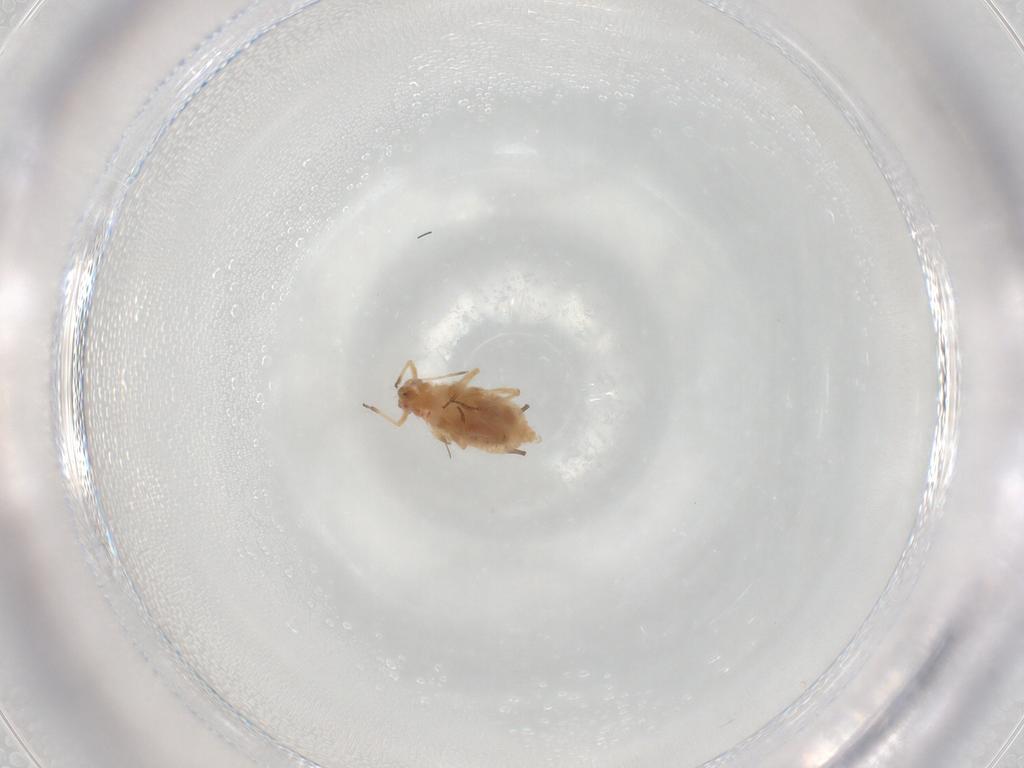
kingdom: Animalia
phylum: Arthropoda
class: Insecta
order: Hemiptera
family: Aphididae
